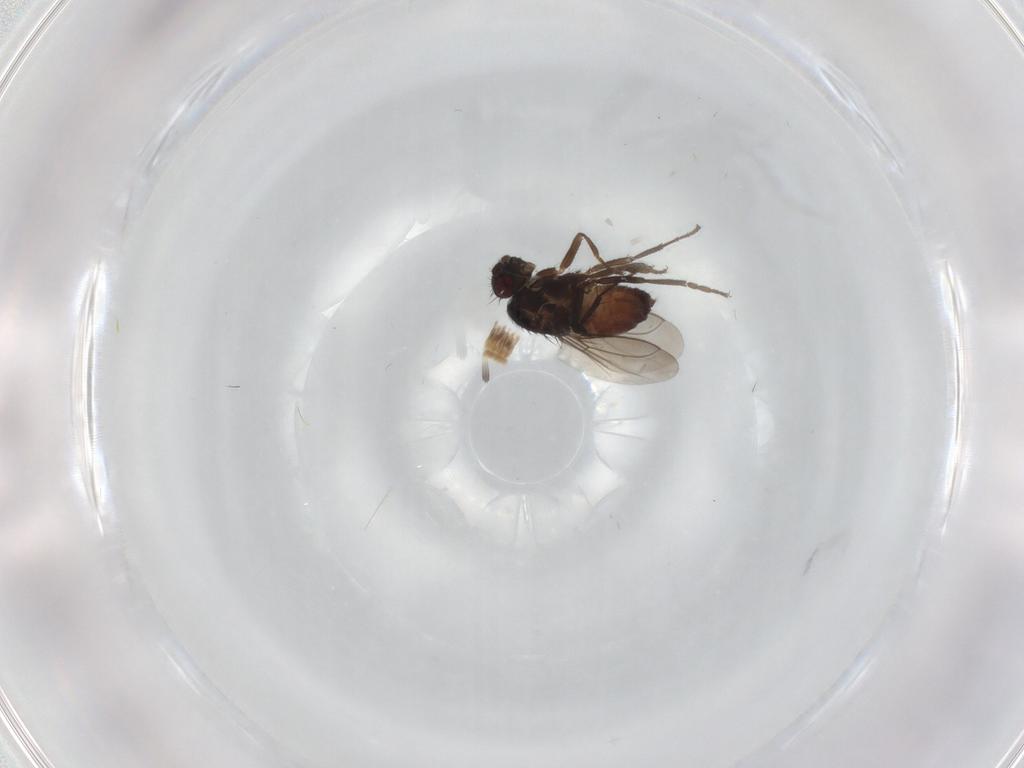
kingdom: Animalia
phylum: Arthropoda
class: Insecta
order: Diptera
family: Sphaeroceridae
